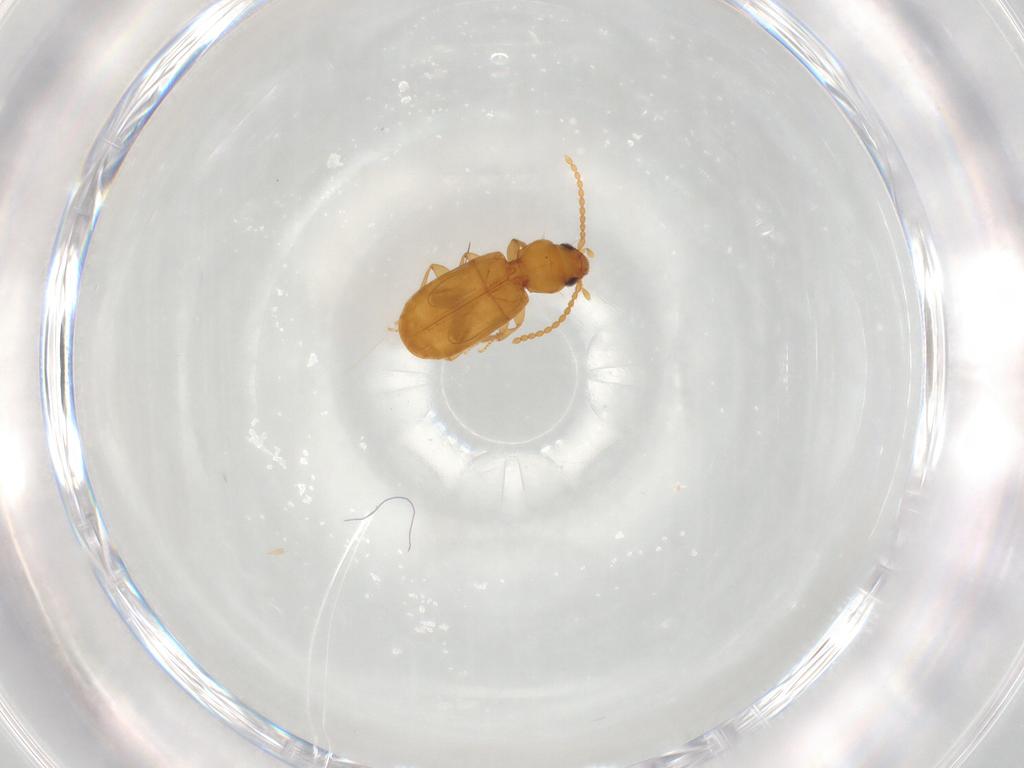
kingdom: Animalia
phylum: Arthropoda
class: Insecta
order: Coleoptera
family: Carabidae
